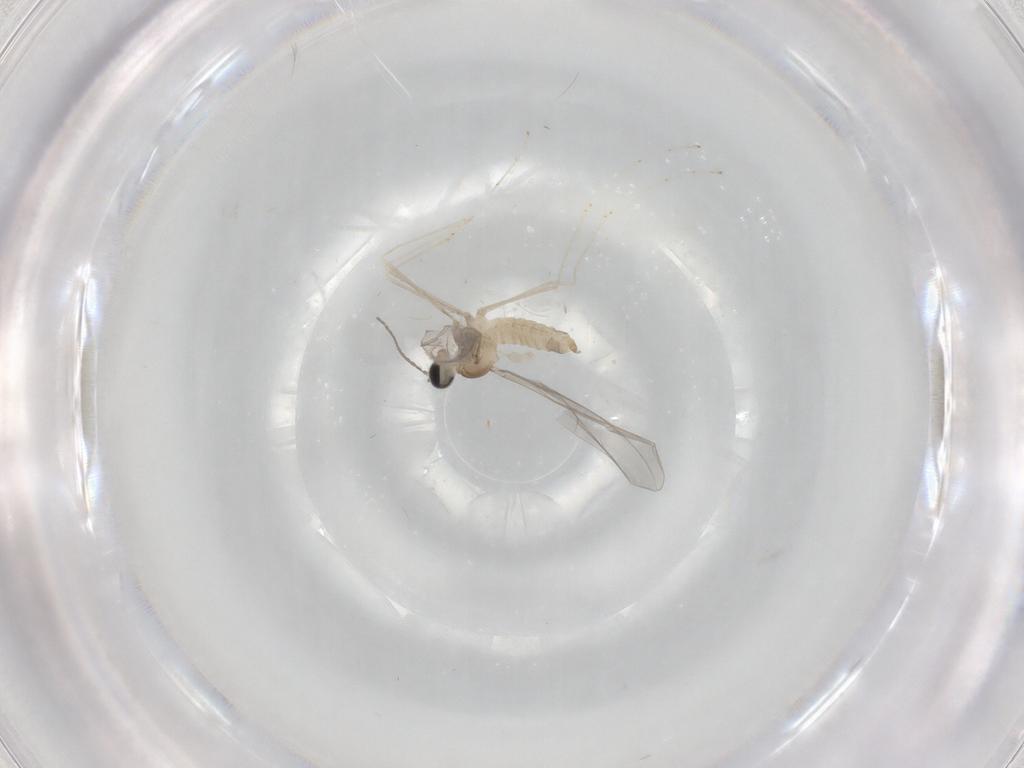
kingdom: Animalia
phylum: Arthropoda
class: Insecta
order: Diptera
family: Cecidomyiidae
